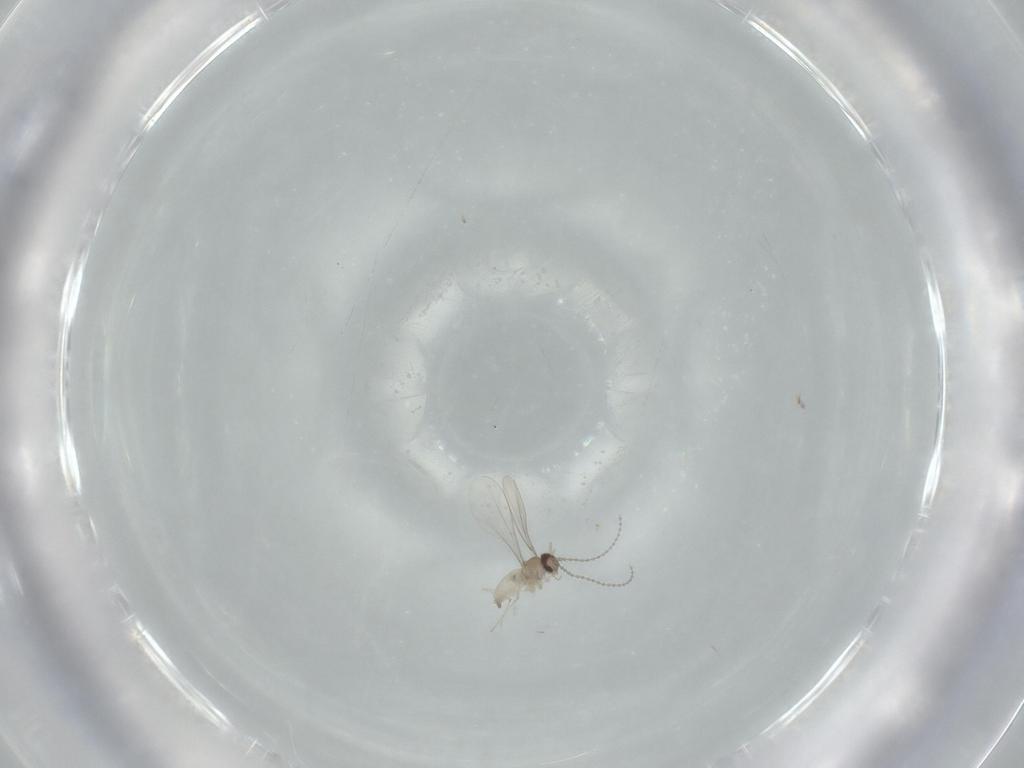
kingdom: Animalia
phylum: Arthropoda
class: Insecta
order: Diptera
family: Cecidomyiidae
